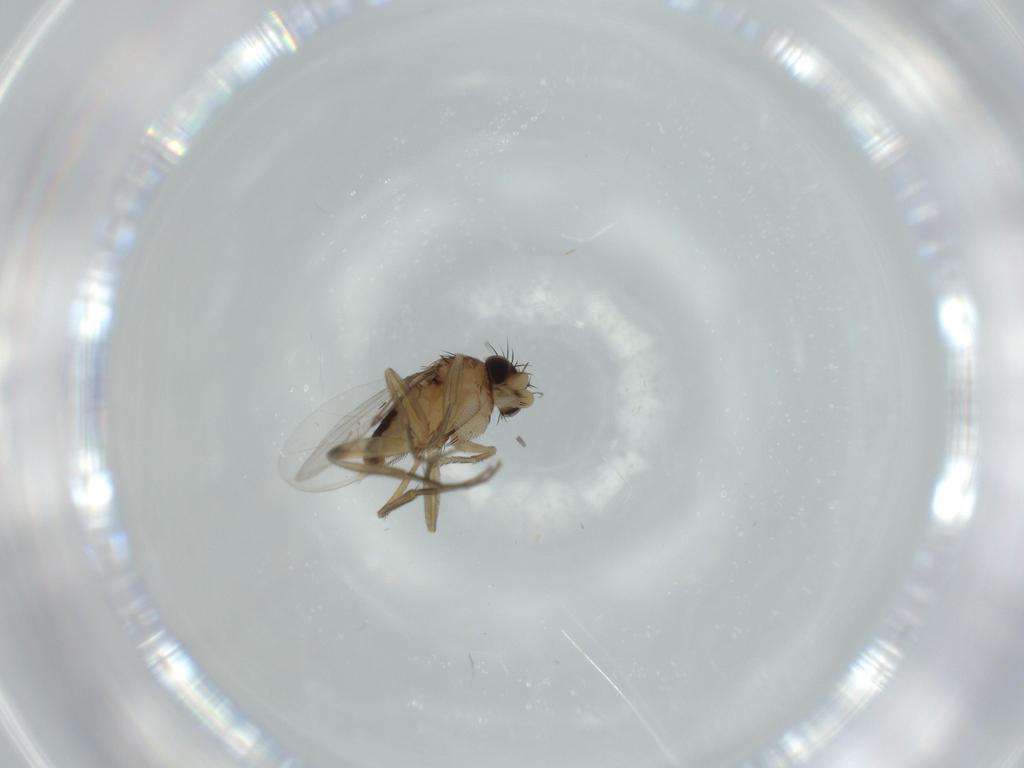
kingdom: Animalia
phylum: Arthropoda
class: Insecta
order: Diptera
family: Phoridae
